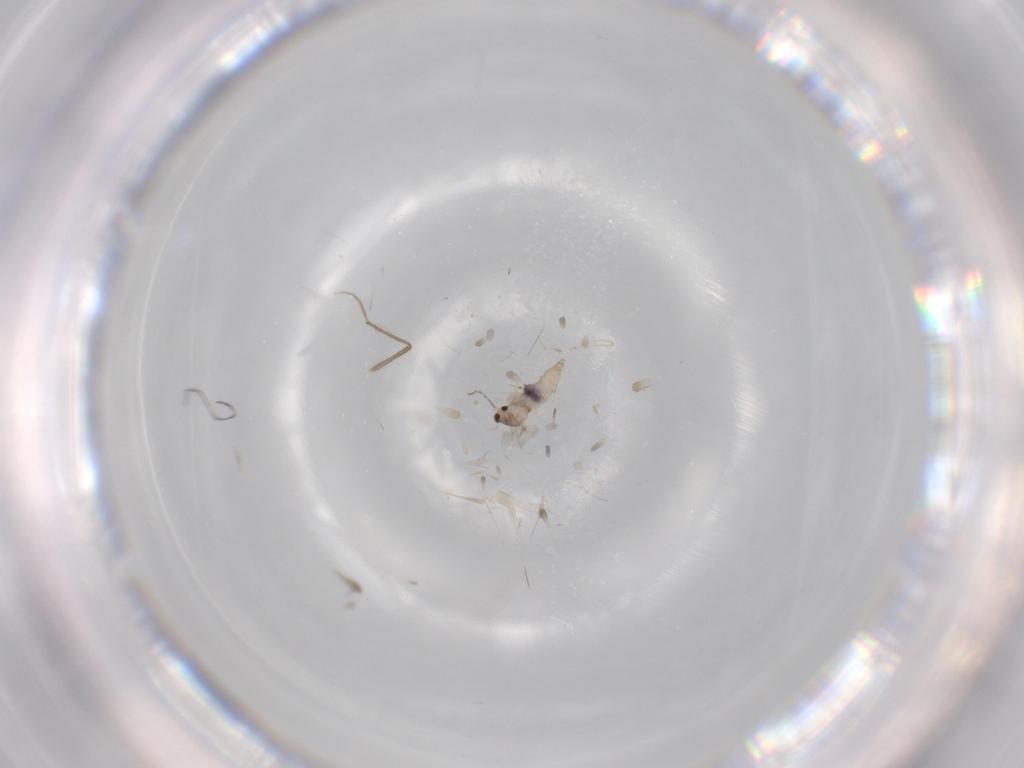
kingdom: Animalia
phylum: Arthropoda
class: Insecta
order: Diptera
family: Cecidomyiidae
